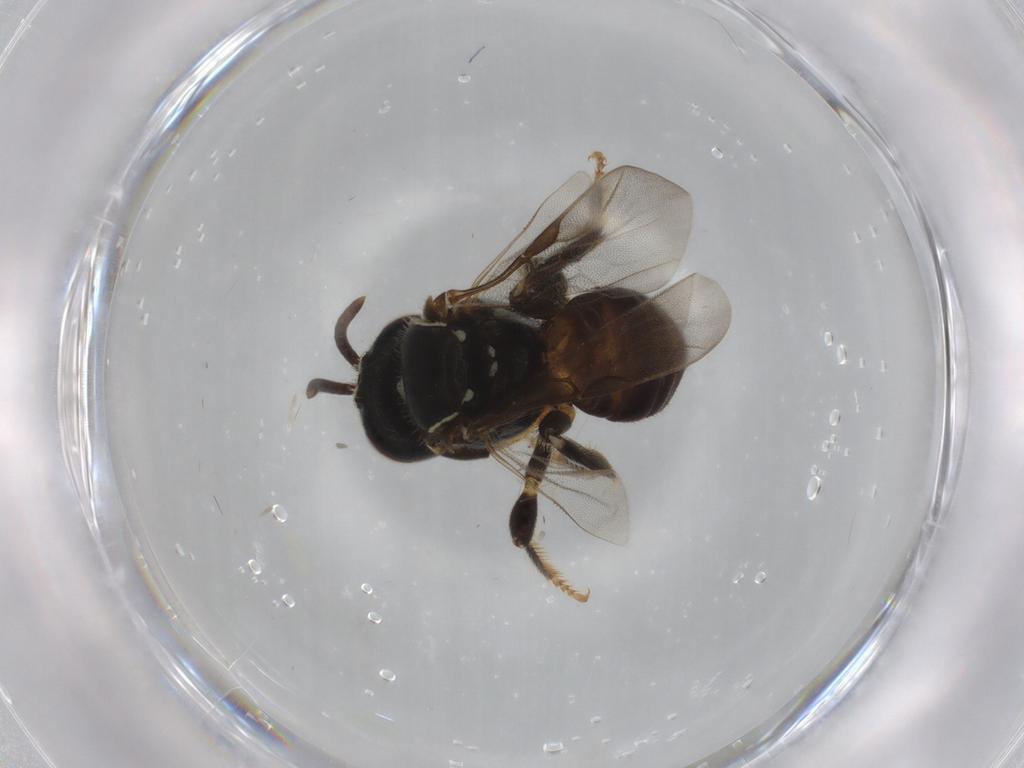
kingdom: Animalia
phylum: Arthropoda
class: Insecta
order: Hymenoptera
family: Apidae
